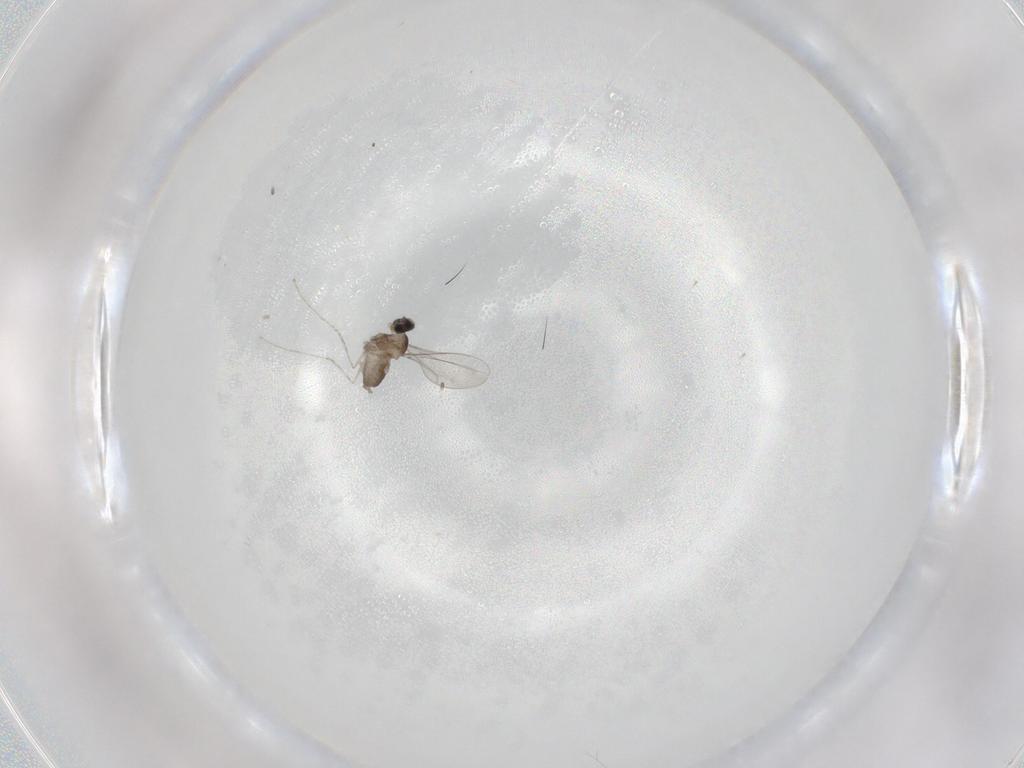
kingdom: Animalia
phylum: Arthropoda
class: Insecta
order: Diptera
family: Cecidomyiidae
